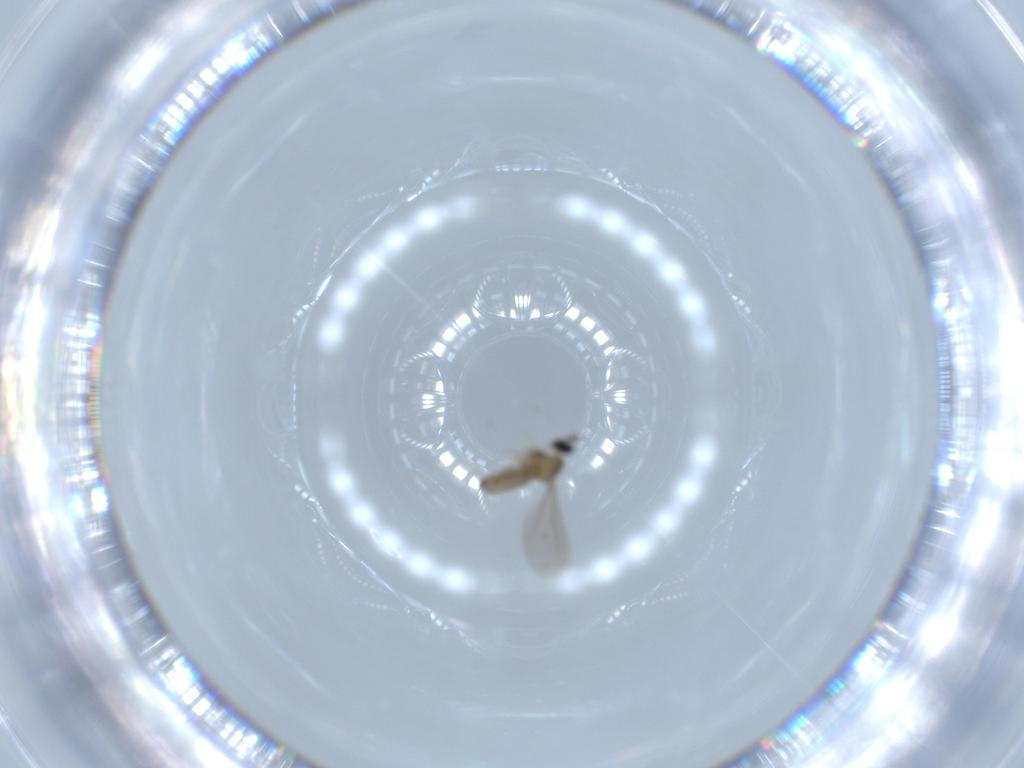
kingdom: Animalia
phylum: Arthropoda
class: Insecta
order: Diptera
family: Cecidomyiidae
